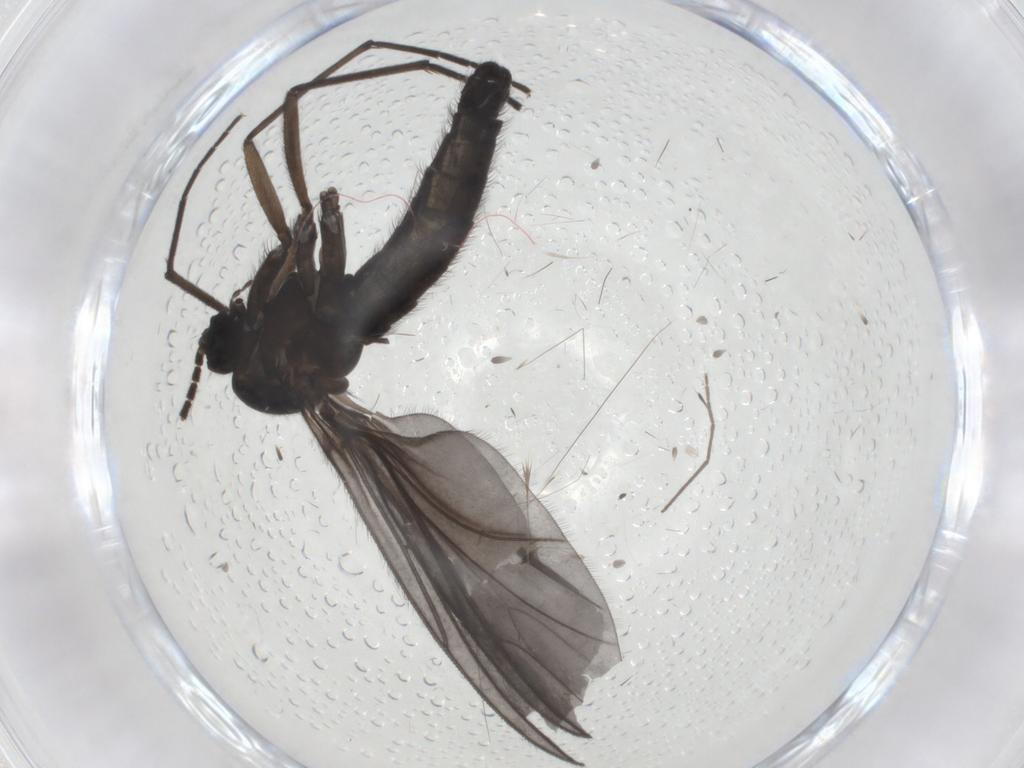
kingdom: Animalia
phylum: Arthropoda
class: Insecta
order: Diptera
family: Sciaridae
